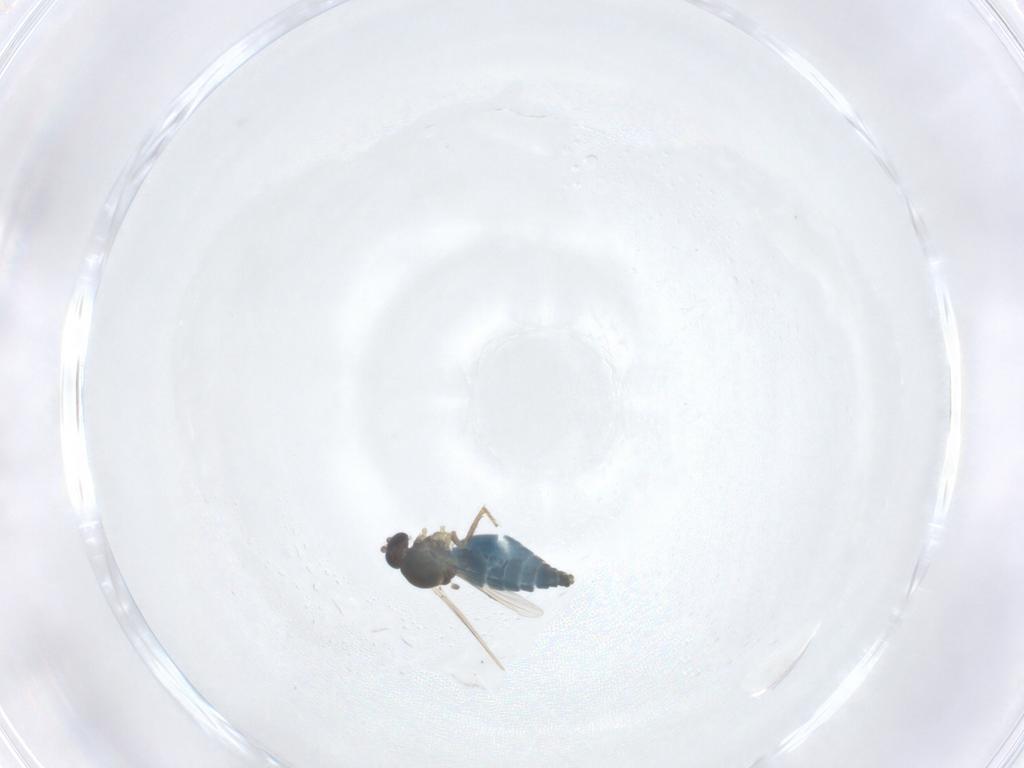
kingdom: Animalia
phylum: Arthropoda
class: Insecta
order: Diptera
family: Ceratopogonidae
